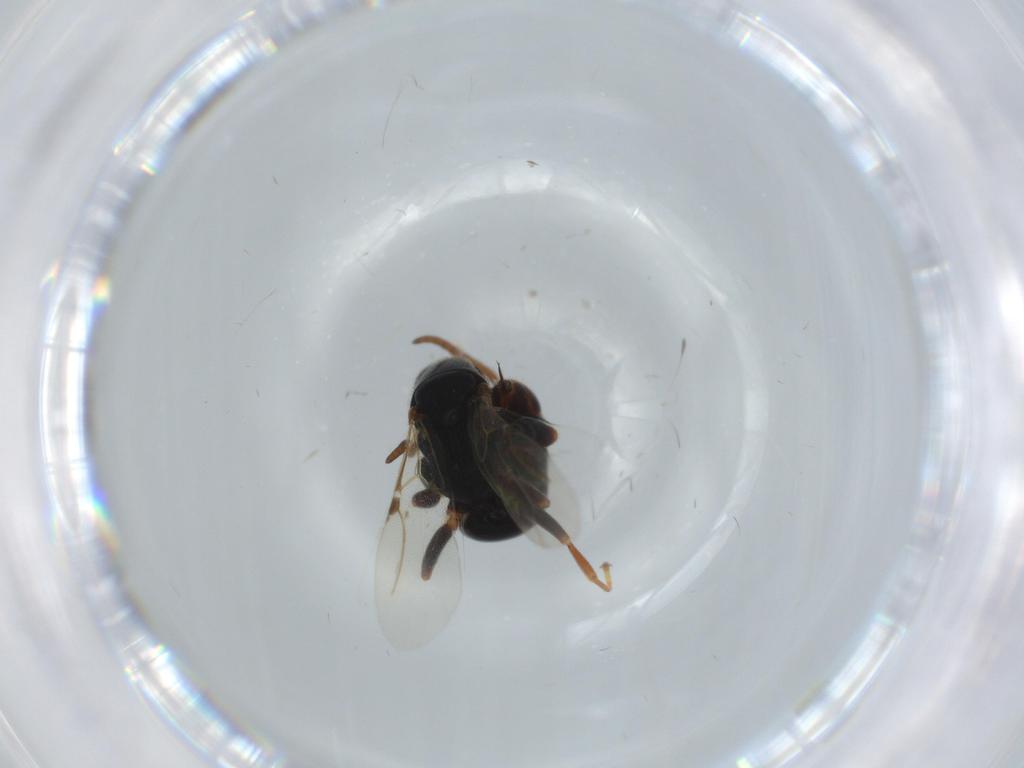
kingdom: Animalia
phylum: Arthropoda
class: Insecta
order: Hymenoptera
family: Bethylidae
